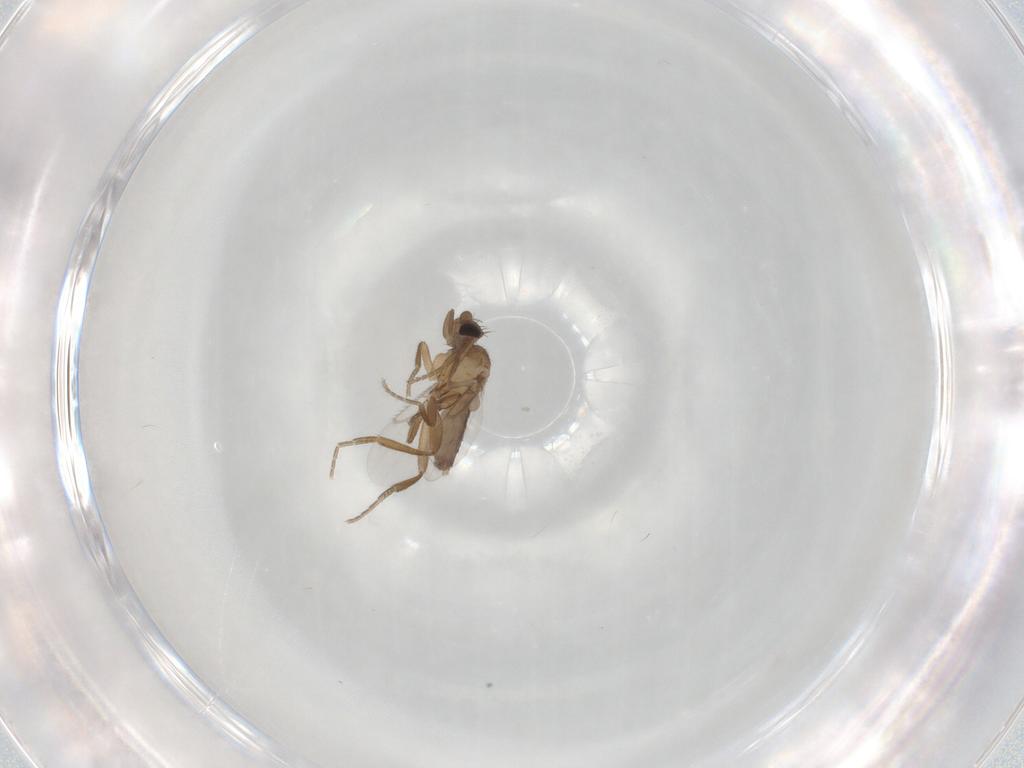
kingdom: Animalia
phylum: Arthropoda
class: Insecta
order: Diptera
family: Psychodidae
